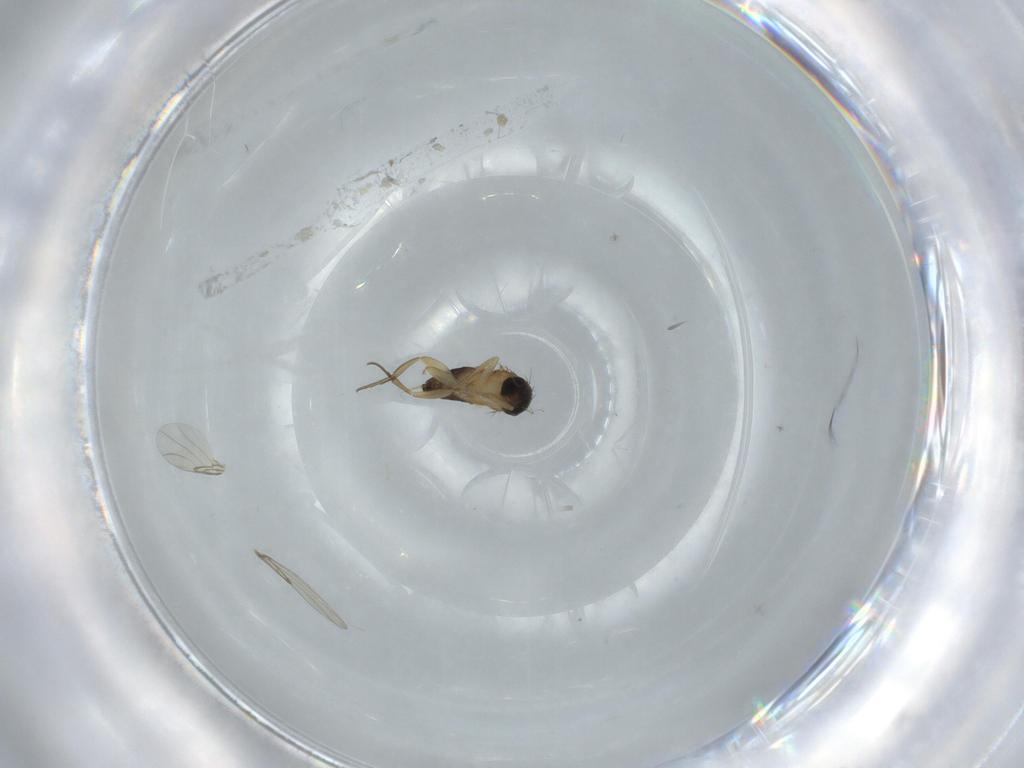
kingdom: Animalia
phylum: Arthropoda
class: Insecta
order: Diptera
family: Phoridae
